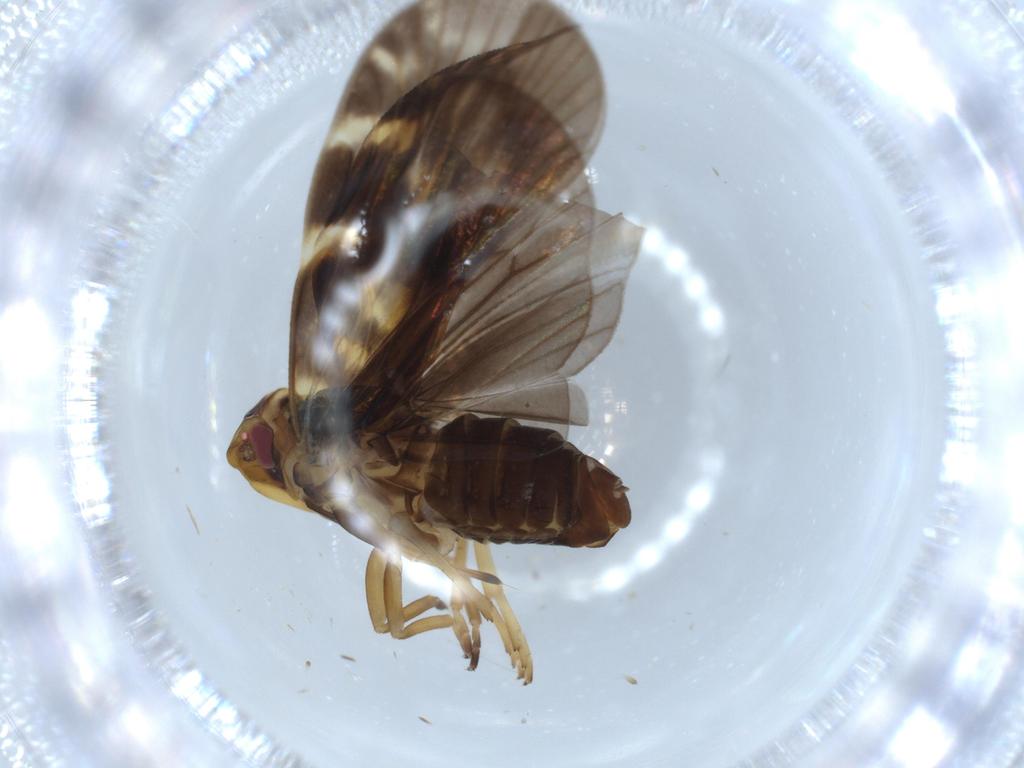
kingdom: Animalia
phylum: Arthropoda
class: Insecta
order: Hemiptera
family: Cixiidae
